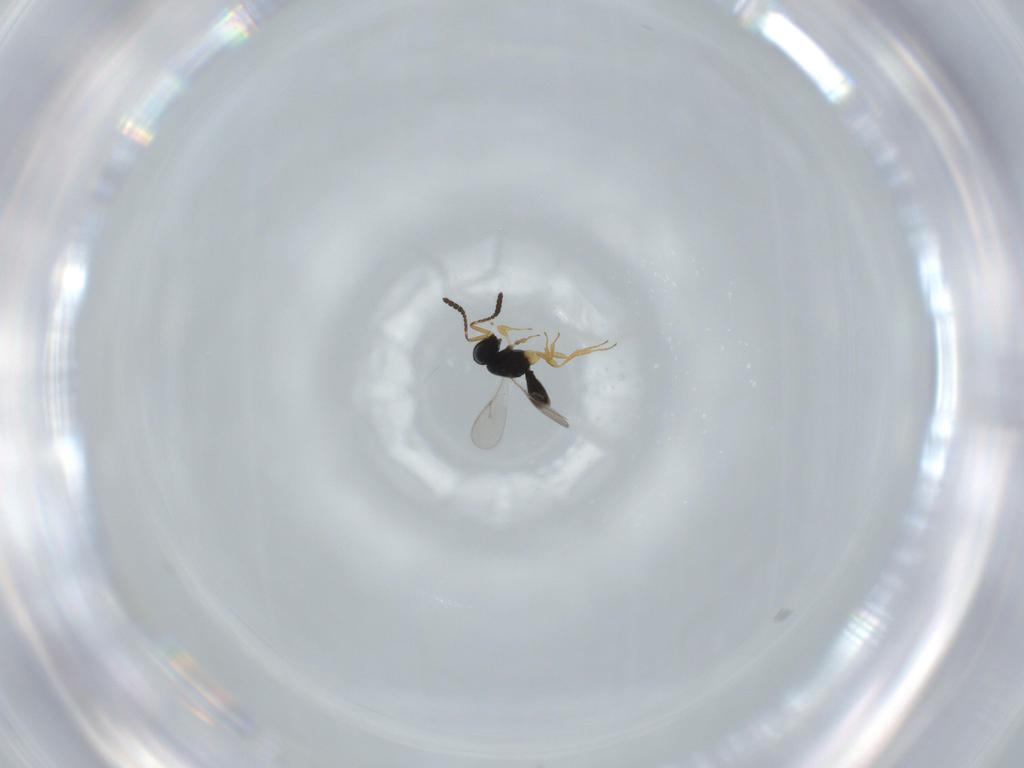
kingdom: Animalia
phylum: Arthropoda
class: Insecta
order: Hymenoptera
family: Scelionidae
